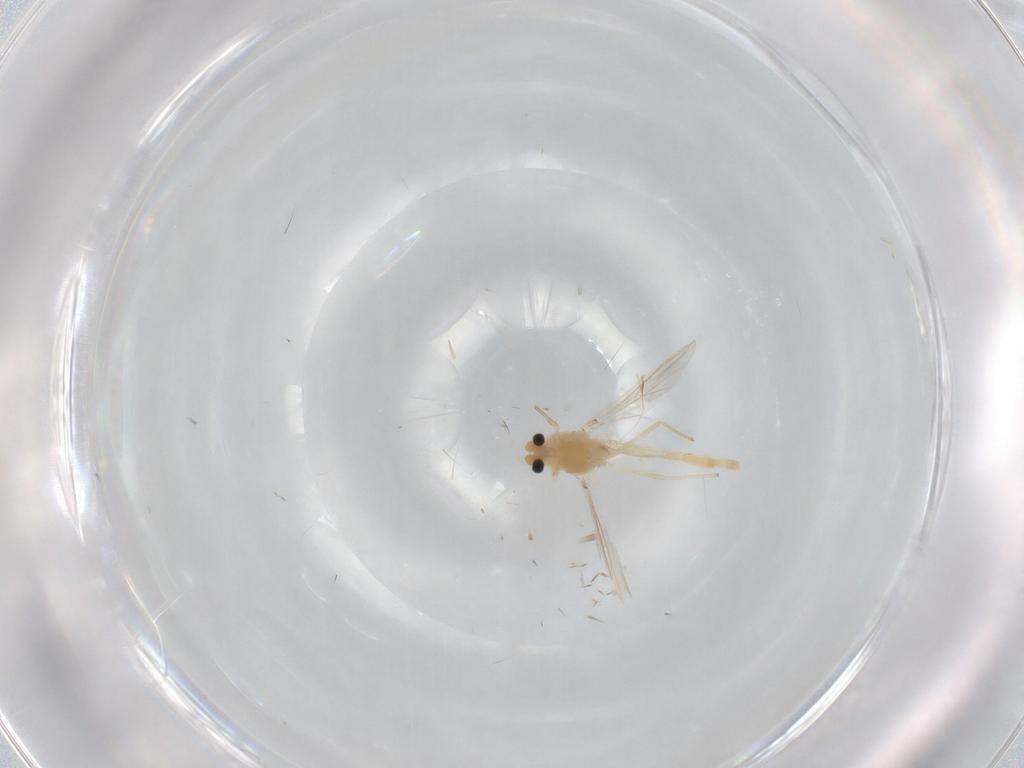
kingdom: Animalia
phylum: Arthropoda
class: Insecta
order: Diptera
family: Chironomidae
